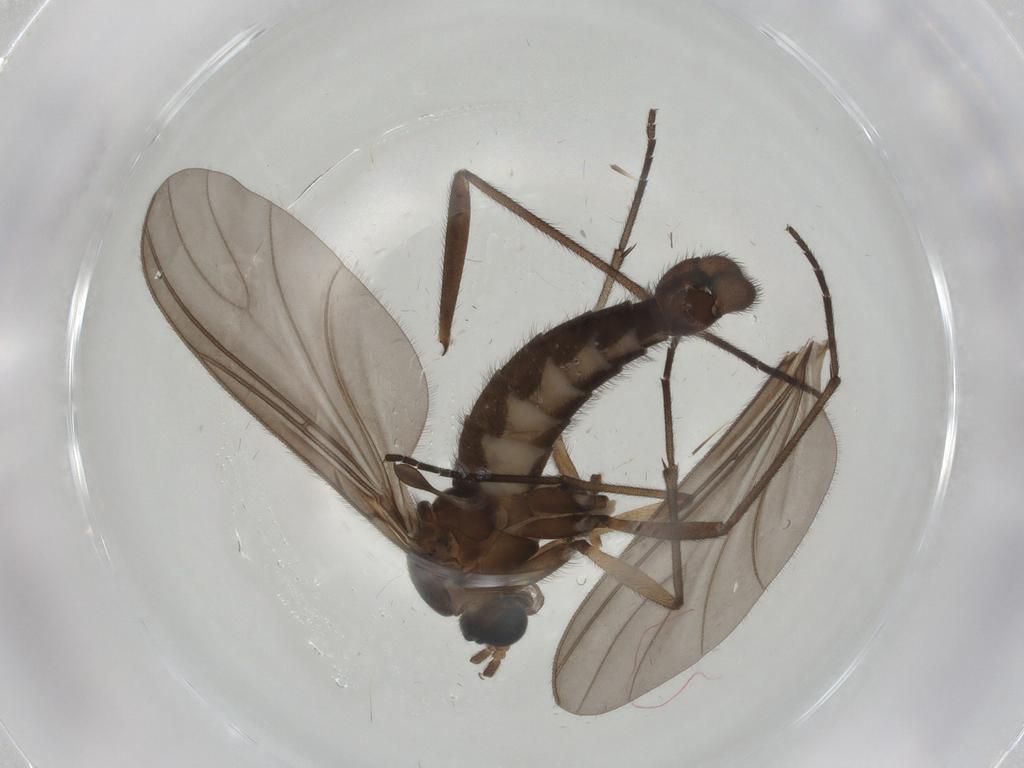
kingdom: Animalia
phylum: Arthropoda
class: Insecta
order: Diptera
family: Sciaridae
